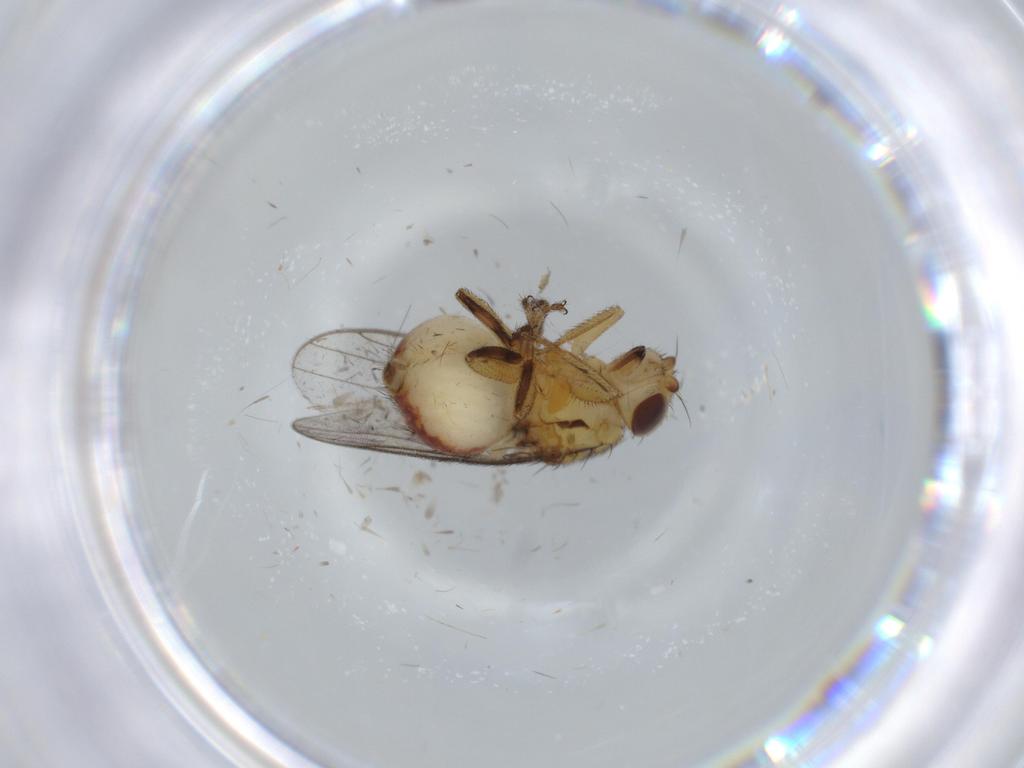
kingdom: Animalia
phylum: Arthropoda
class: Insecta
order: Diptera
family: Chloropidae
